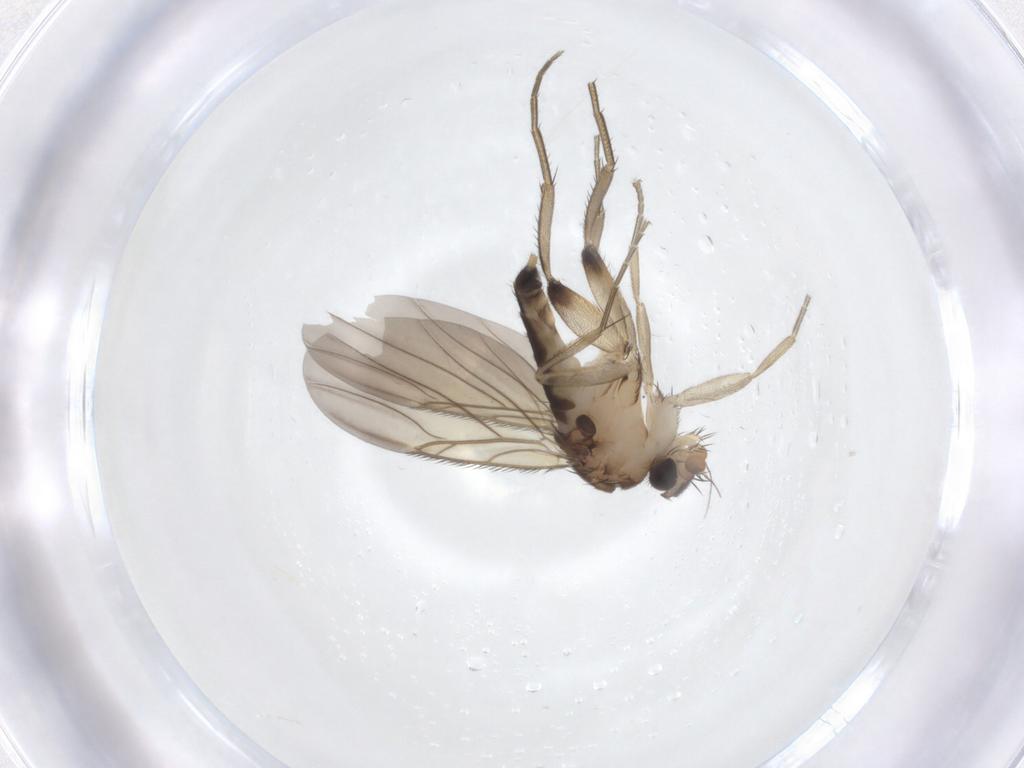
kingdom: Animalia
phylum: Arthropoda
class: Insecta
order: Diptera
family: Phoridae
